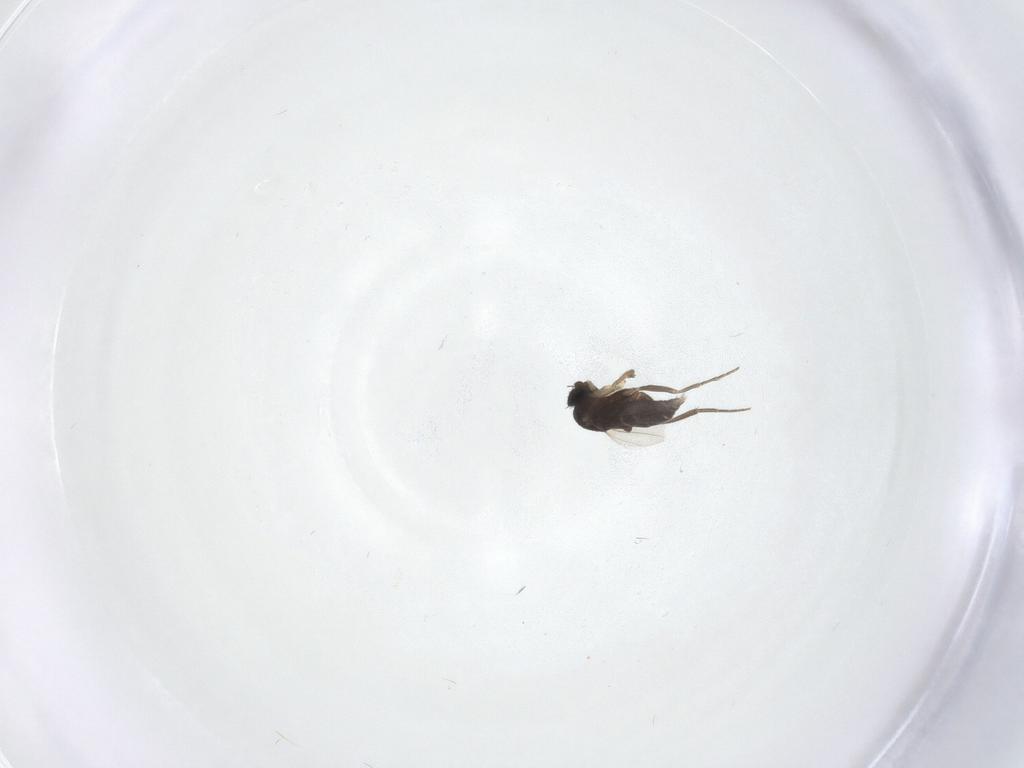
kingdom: Animalia
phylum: Arthropoda
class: Insecta
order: Diptera
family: Phoridae
